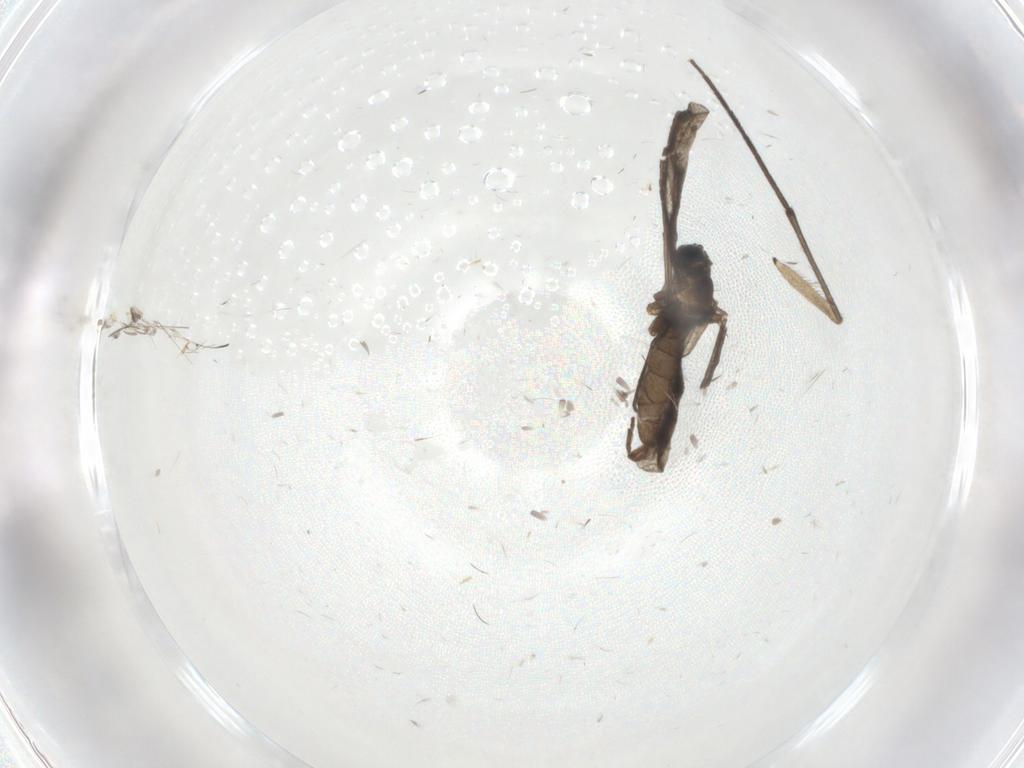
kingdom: Animalia
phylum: Arthropoda
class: Insecta
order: Diptera
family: Sciaridae
